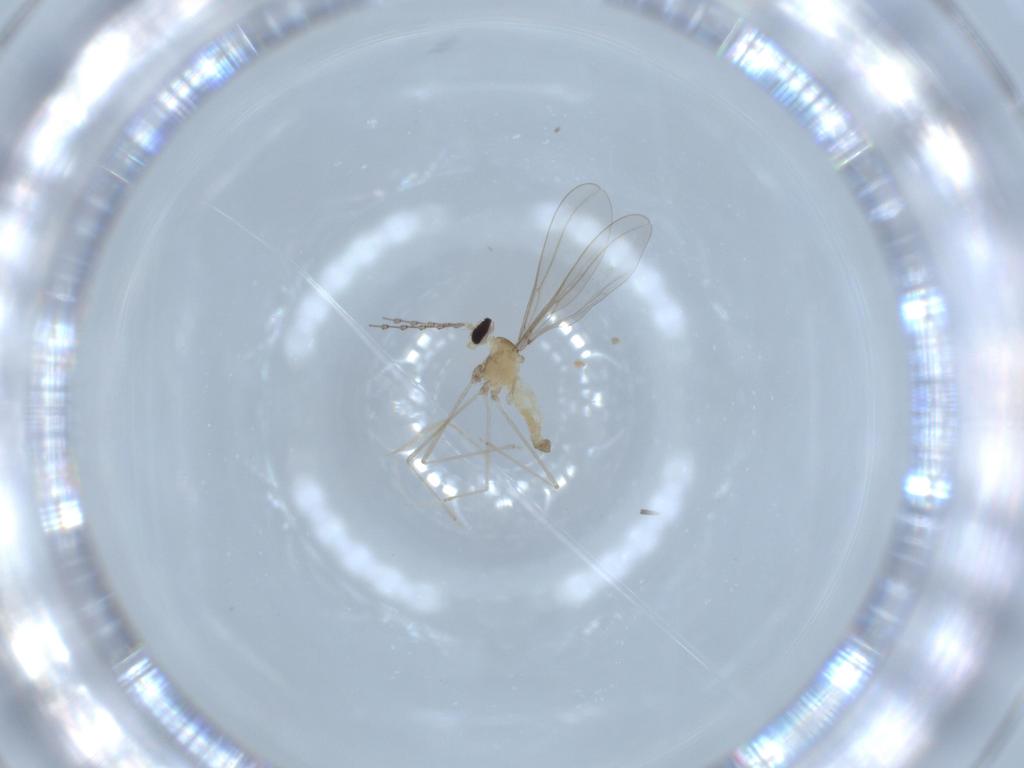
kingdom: Animalia
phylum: Arthropoda
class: Insecta
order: Diptera
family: Cecidomyiidae
